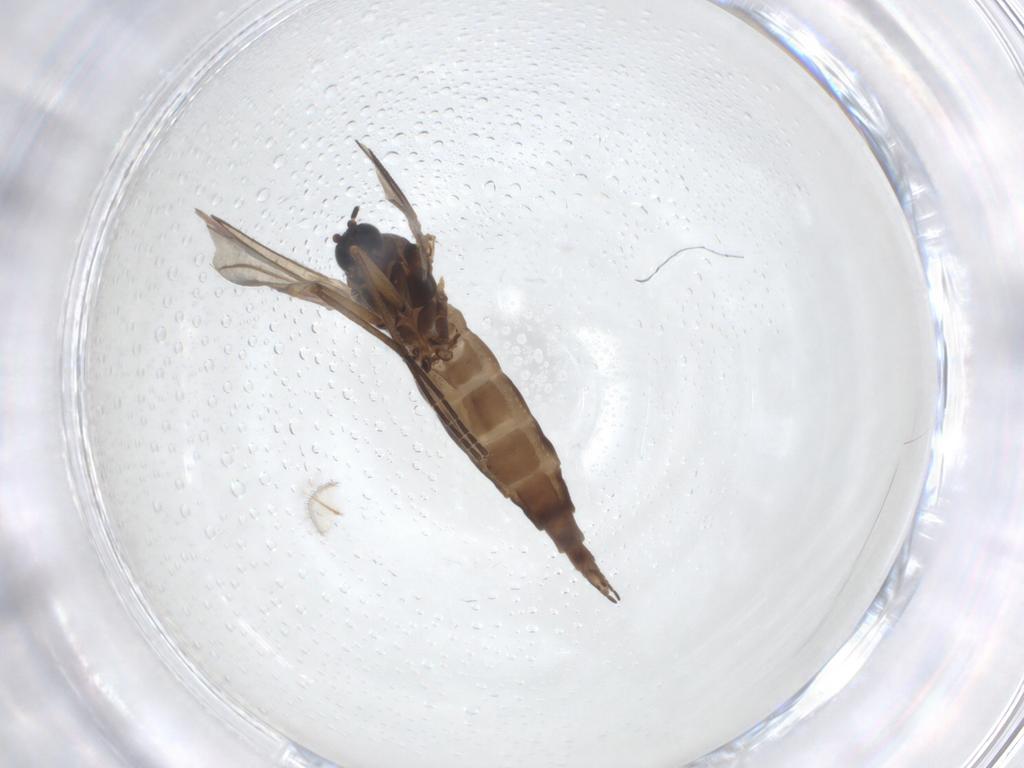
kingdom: Animalia
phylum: Arthropoda
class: Insecta
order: Diptera
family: Sciaridae
